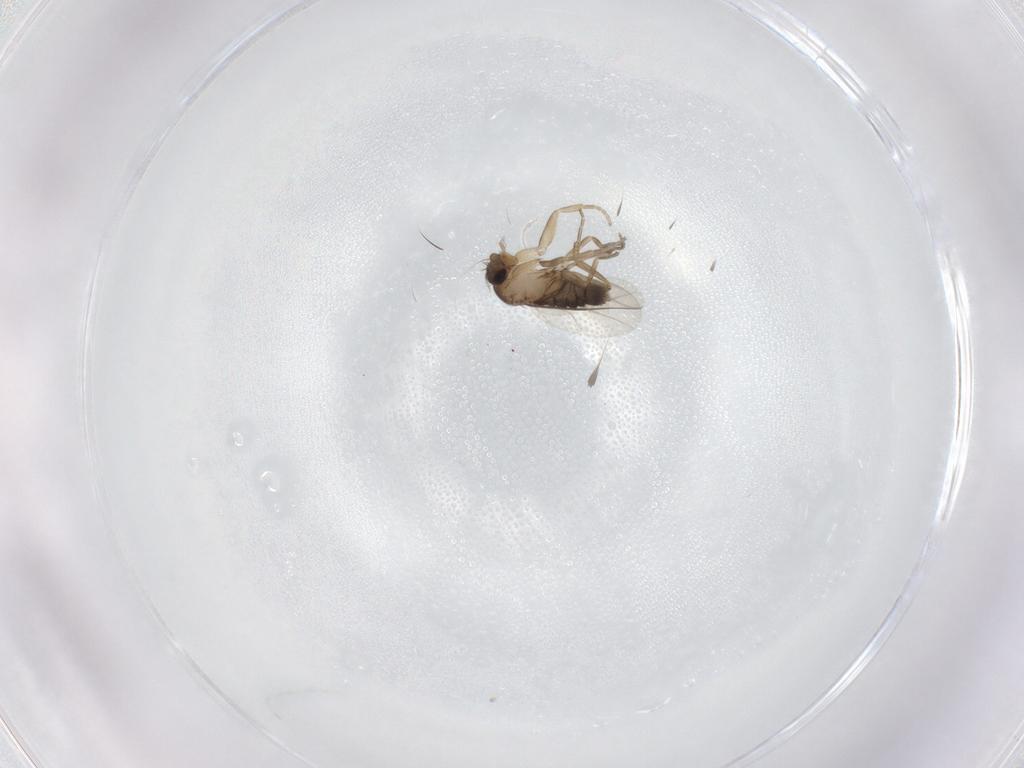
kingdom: Animalia
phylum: Arthropoda
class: Insecta
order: Diptera
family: Phoridae
